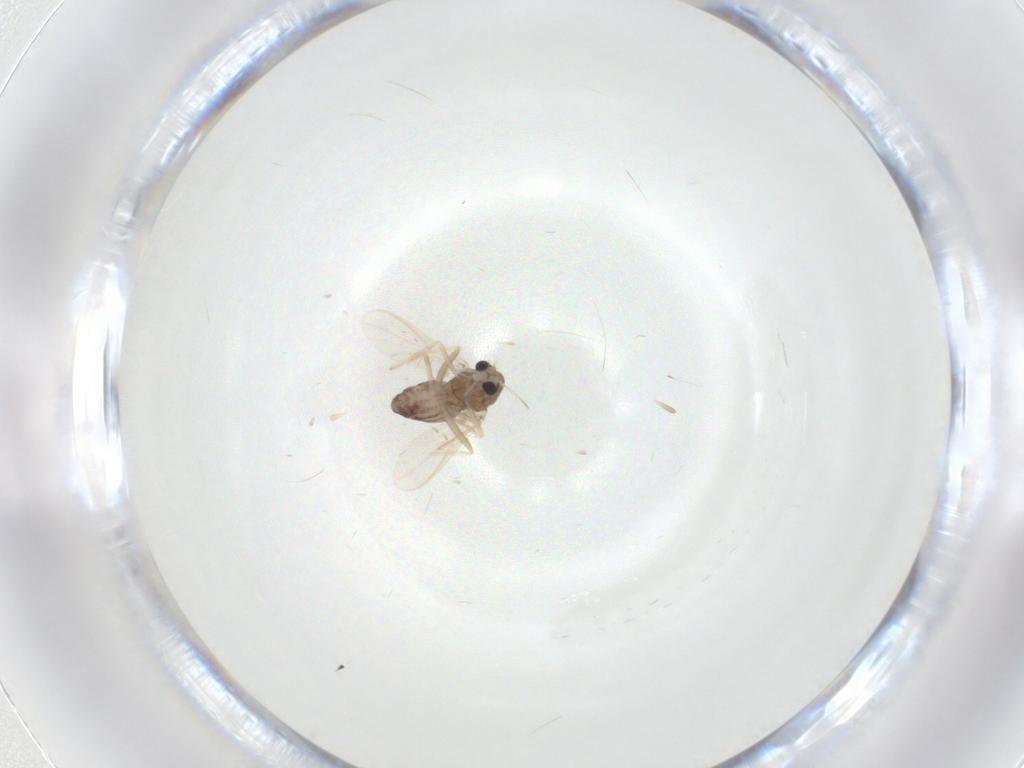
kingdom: Animalia
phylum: Arthropoda
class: Insecta
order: Diptera
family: Chironomidae
